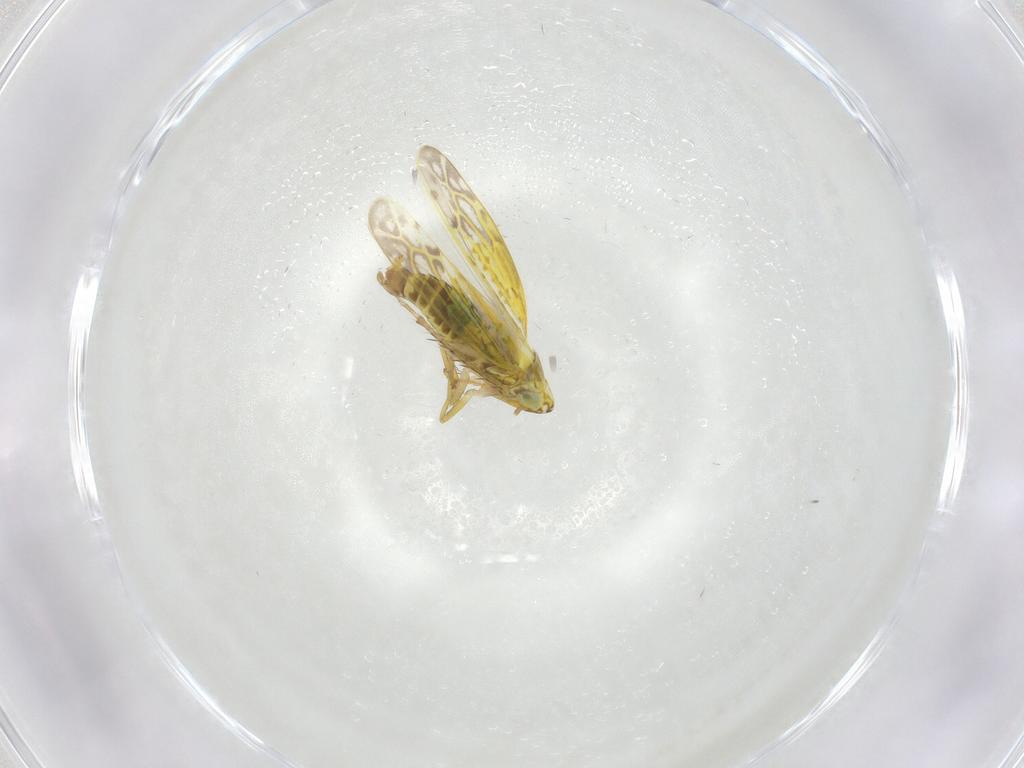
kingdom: Animalia
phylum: Arthropoda
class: Insecta
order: Hemiptera
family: Cicadellidae
